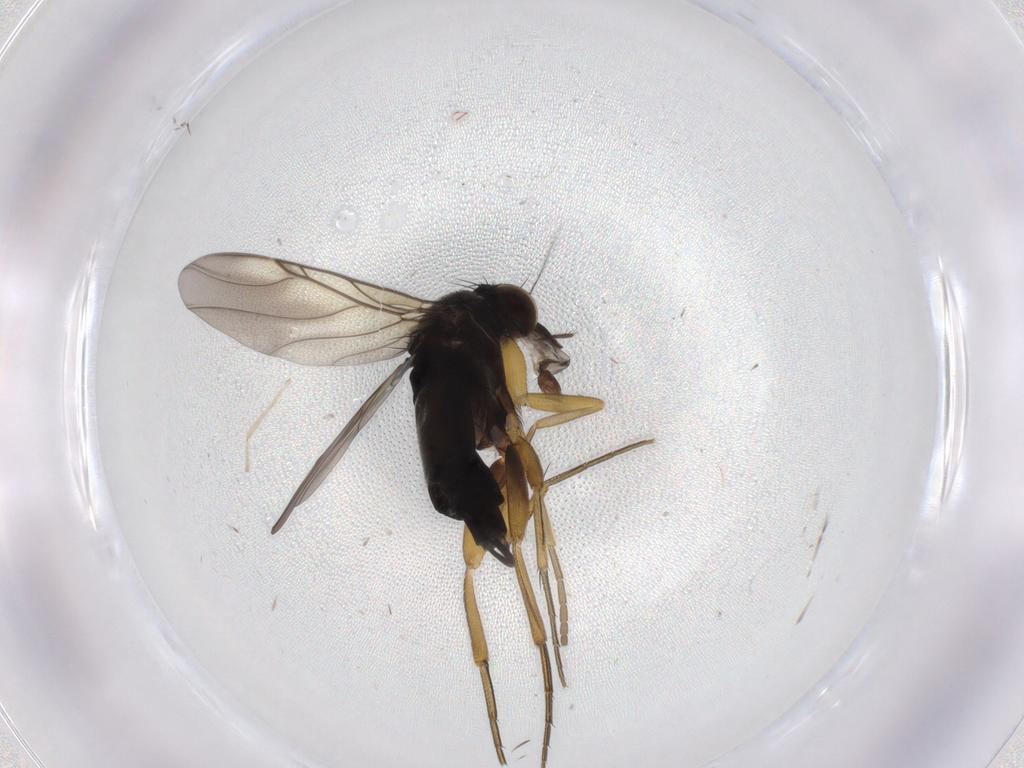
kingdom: Animalia
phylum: Arthropoda
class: Insecta
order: Diptera
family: Chironomidae
